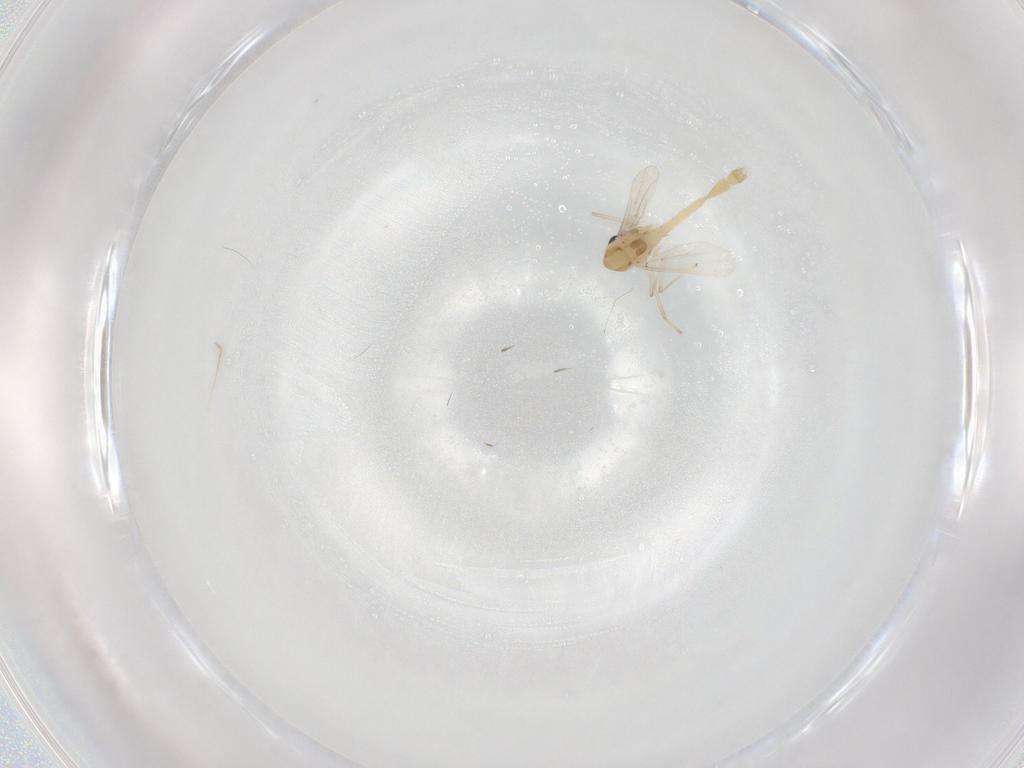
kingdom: Animalia
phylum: Arthropoda
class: Insecta
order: Diptera
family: Chironomidae
